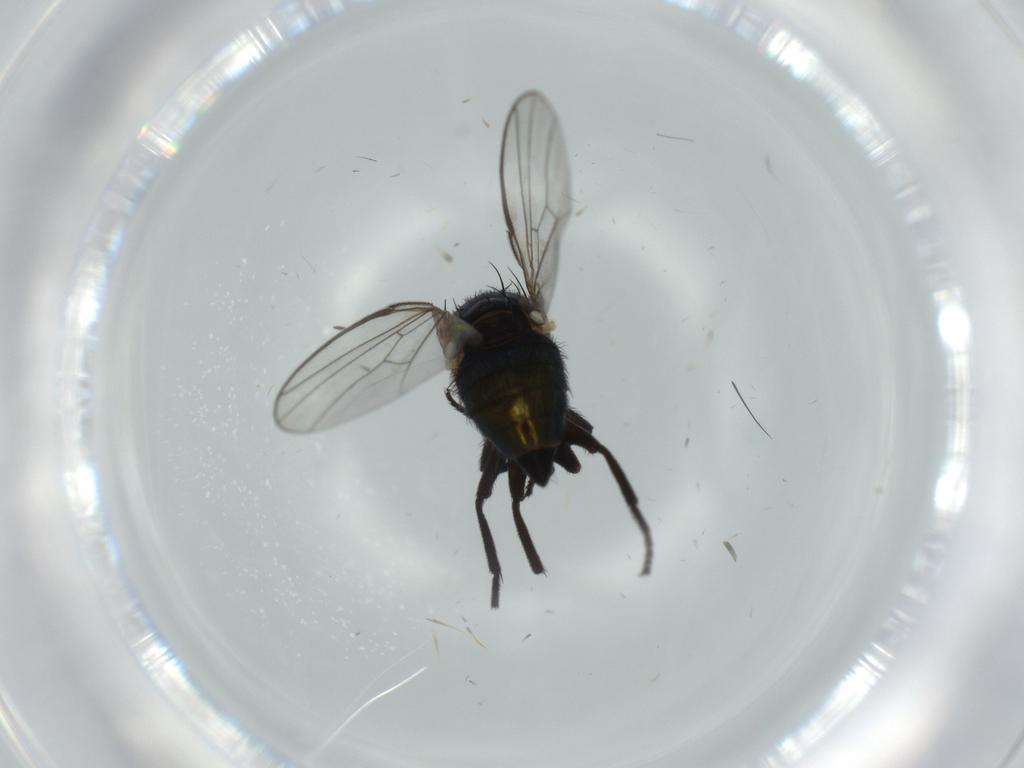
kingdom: Animalia
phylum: Arthropoda
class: Insecta
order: Diptera
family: Agromyzidae
